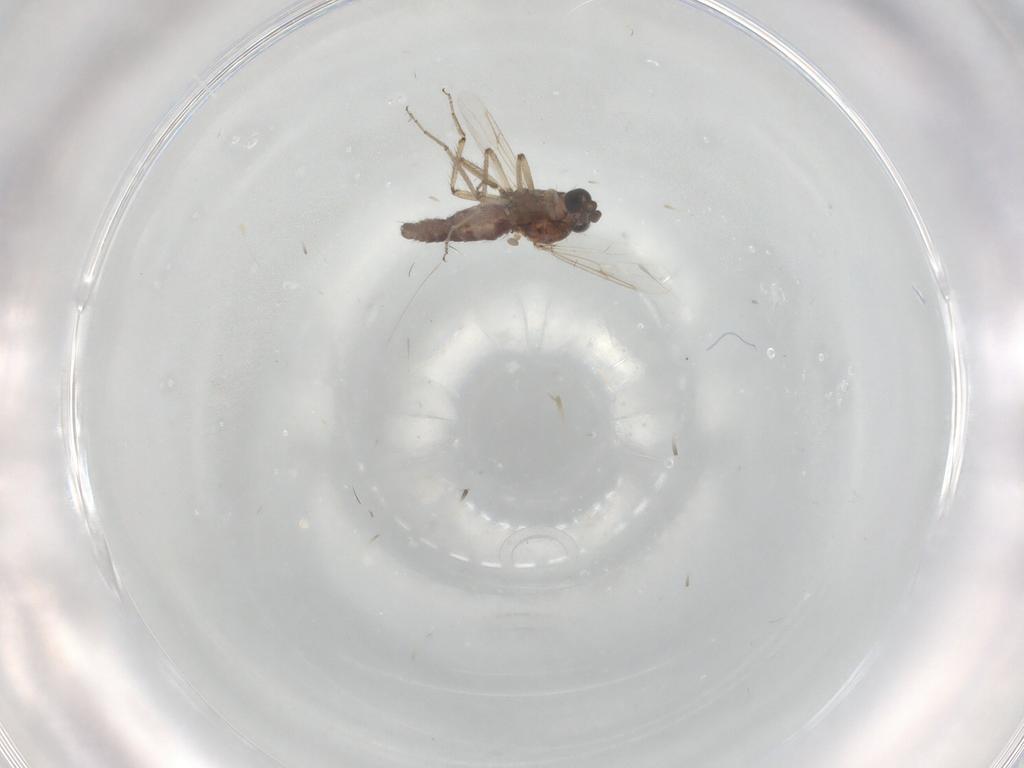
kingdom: Animalia
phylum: Arthropoda
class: Insecta
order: Diptera
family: Ceratopogonidae
